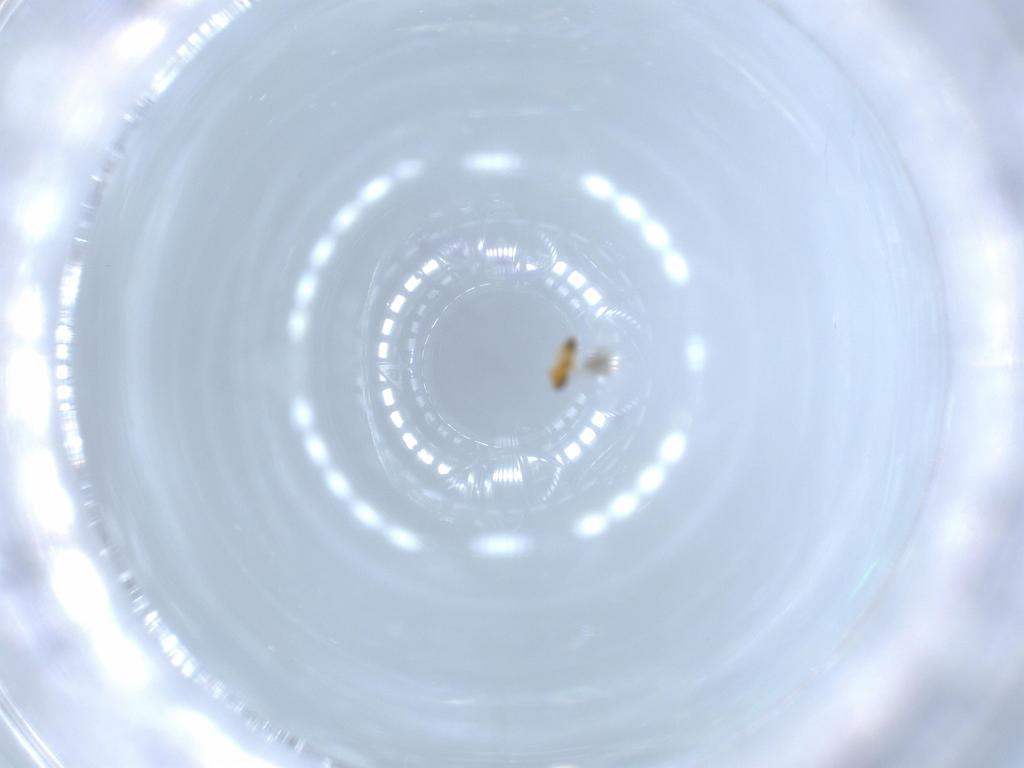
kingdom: Animalia
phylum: Arthropoda
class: Insecta
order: Hymenoptera
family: Platygastridae
